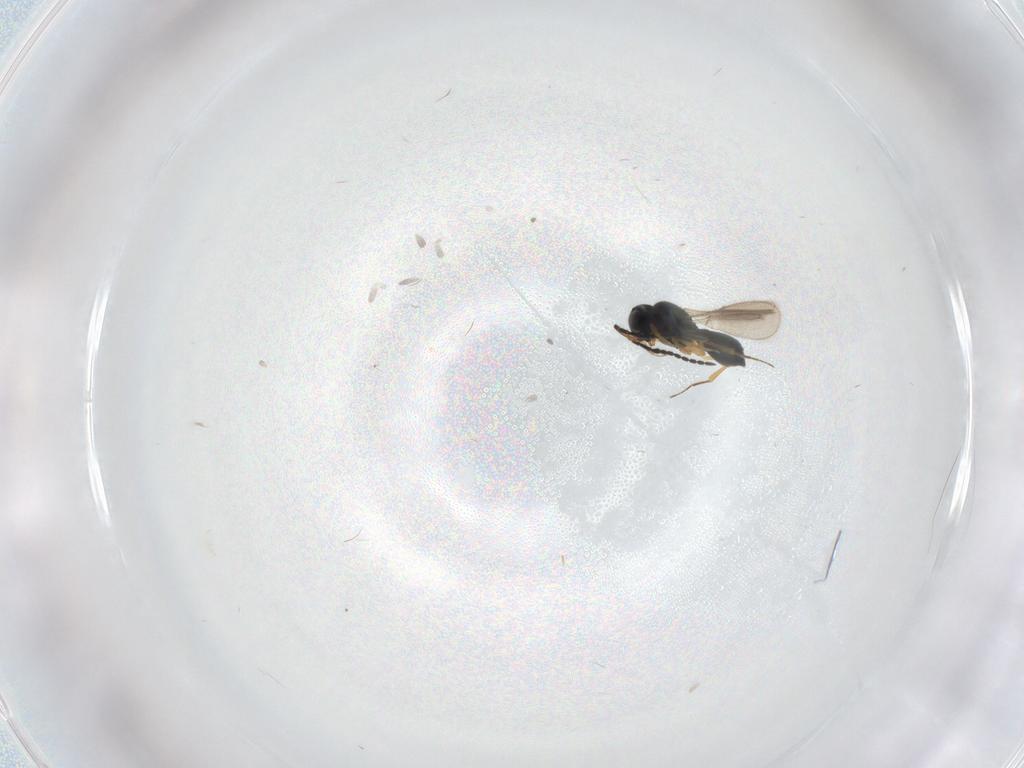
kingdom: Animalia
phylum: Arthropoda
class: Insecta
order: Hymenoptera
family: Scelionidae
